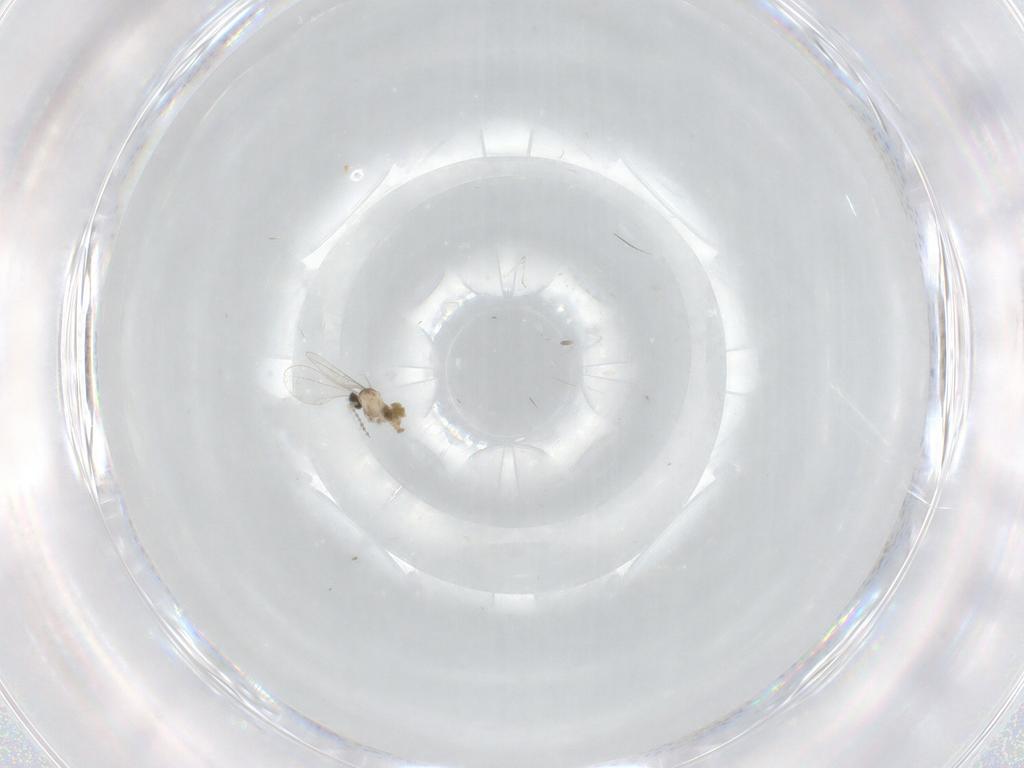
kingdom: Animalia
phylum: Arthropoda
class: Insecta
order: Diptera
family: Cecidomyiidae
